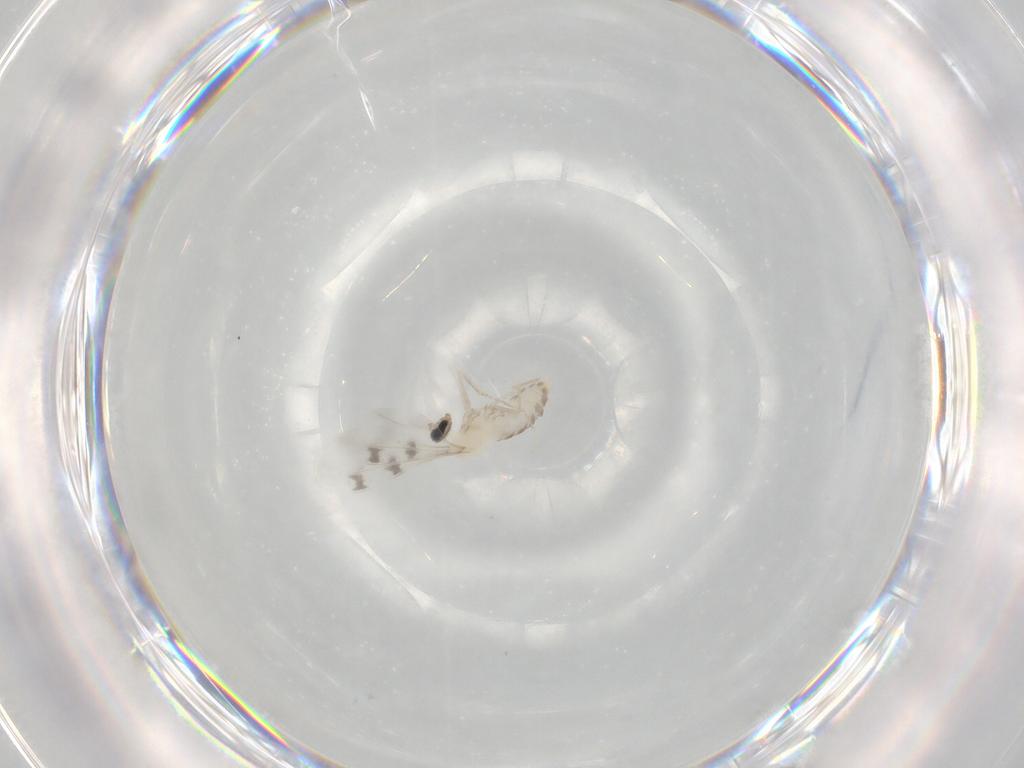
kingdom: Animalia
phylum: Arthropoda
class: Insecta
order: Diptera
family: Cecidomyiidae
